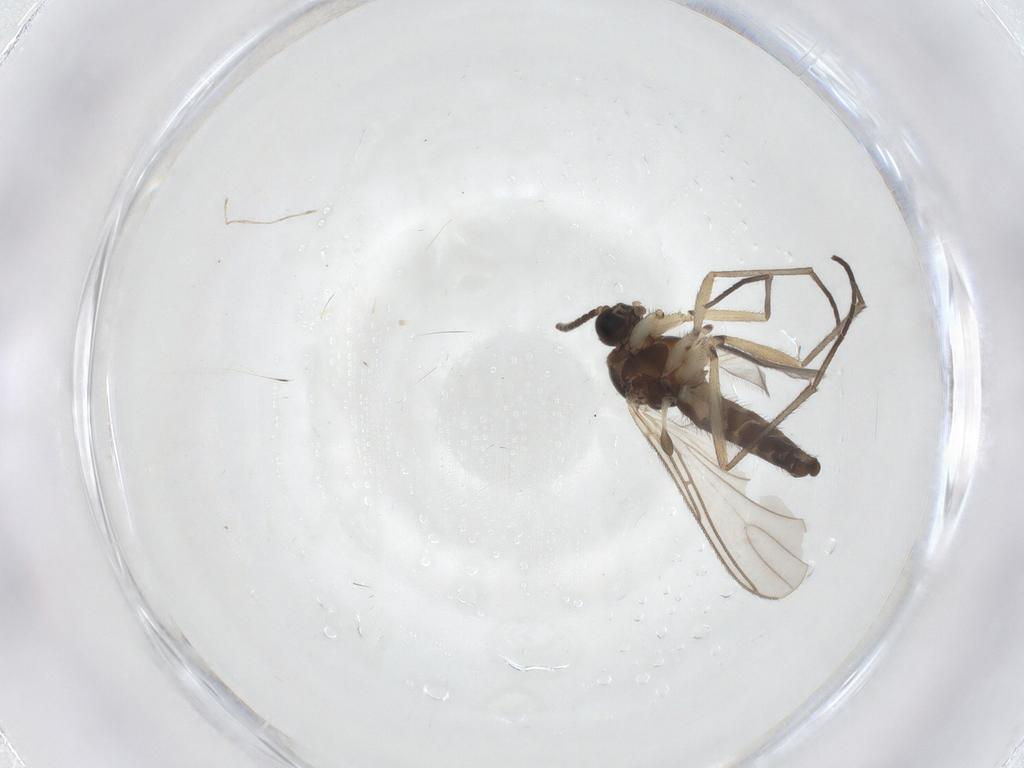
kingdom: Animalia
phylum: Arthropoda
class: Insecta
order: Diptera
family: Sciaridae
